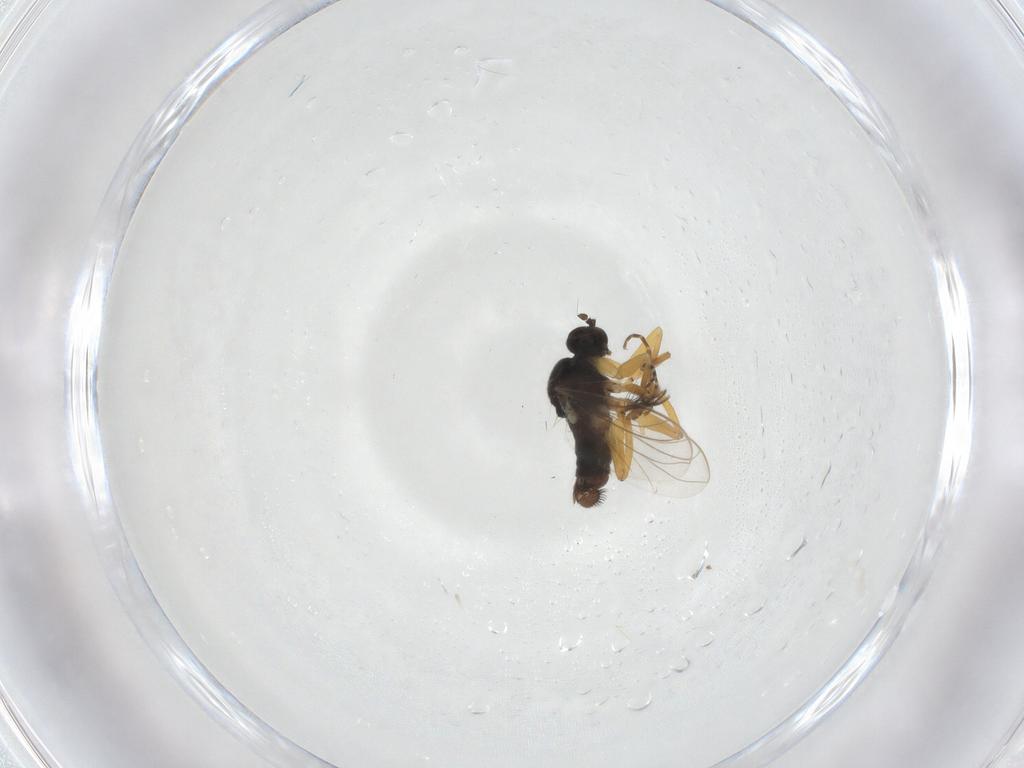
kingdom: Animalia
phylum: Arthropoda
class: Insecta
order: Diptera
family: Hybotidae
